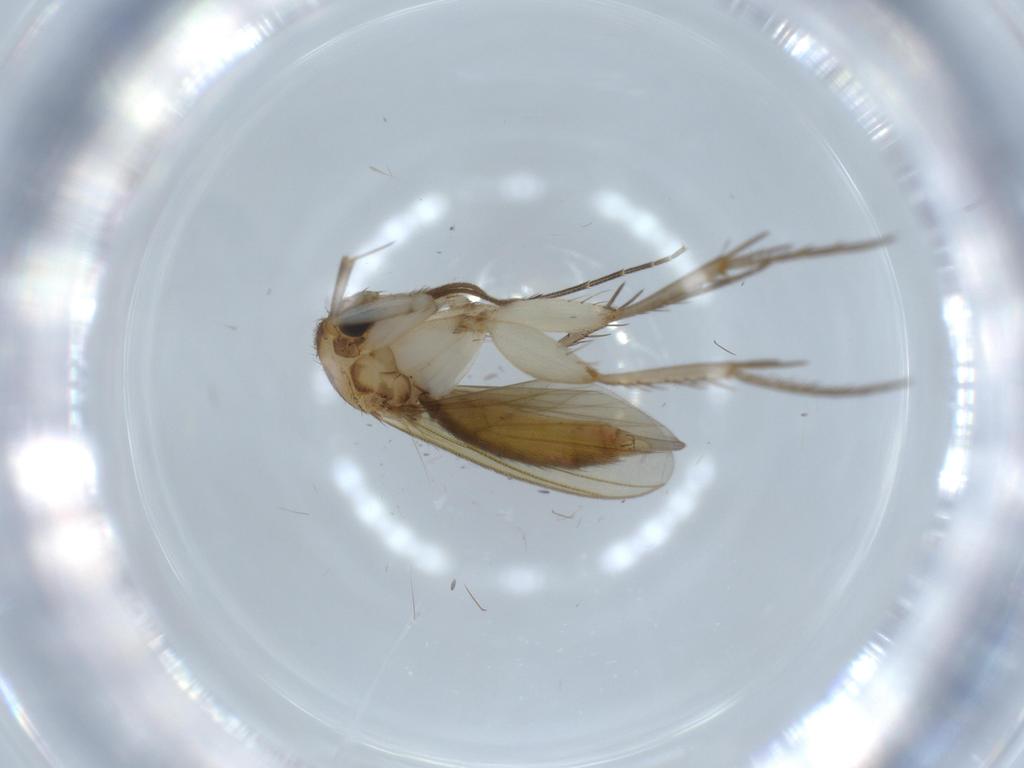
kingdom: Animalia
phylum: Arthropoda
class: Insecta
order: Diptera
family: Mycetophilidae
